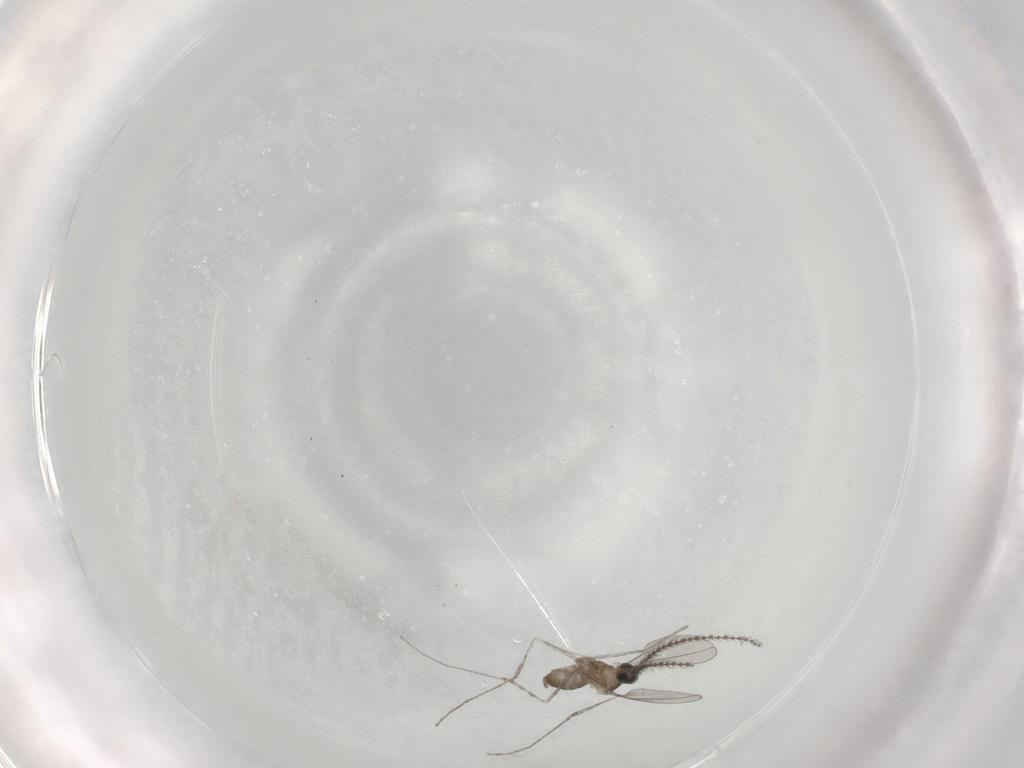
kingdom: Animalia
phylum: Arthropoda
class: Insecta
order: Diptera
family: Cecidomyiidae
